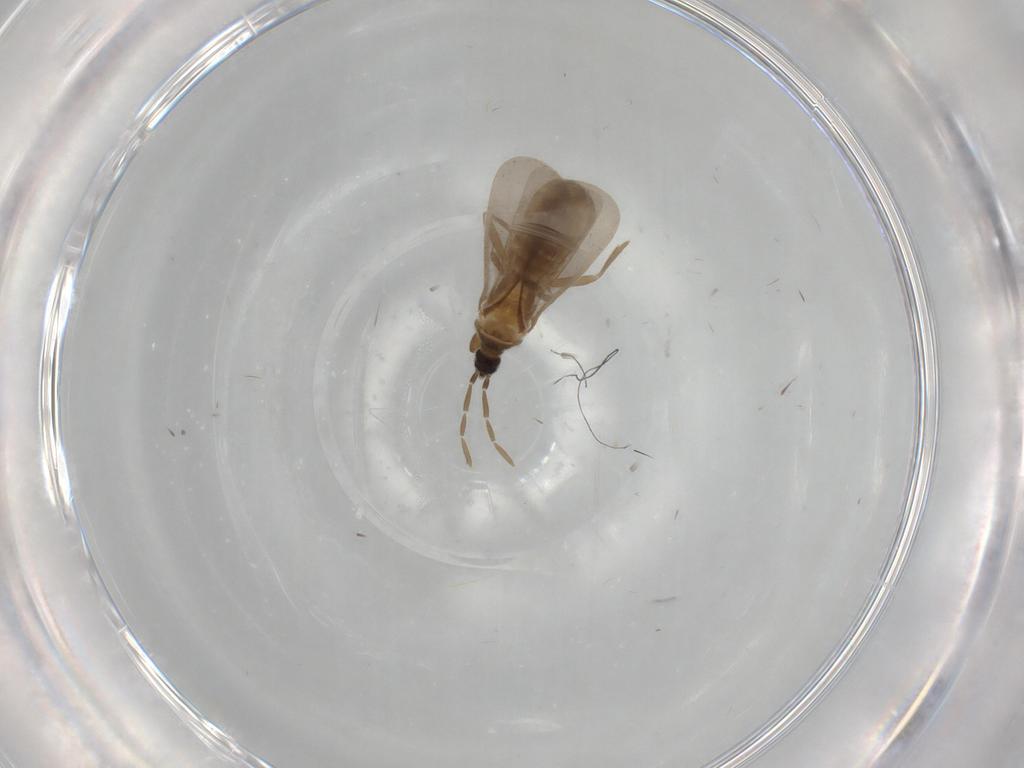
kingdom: Animalia
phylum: Arthropoda
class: Insecta
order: Hemiptera
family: Enicocephalidae
